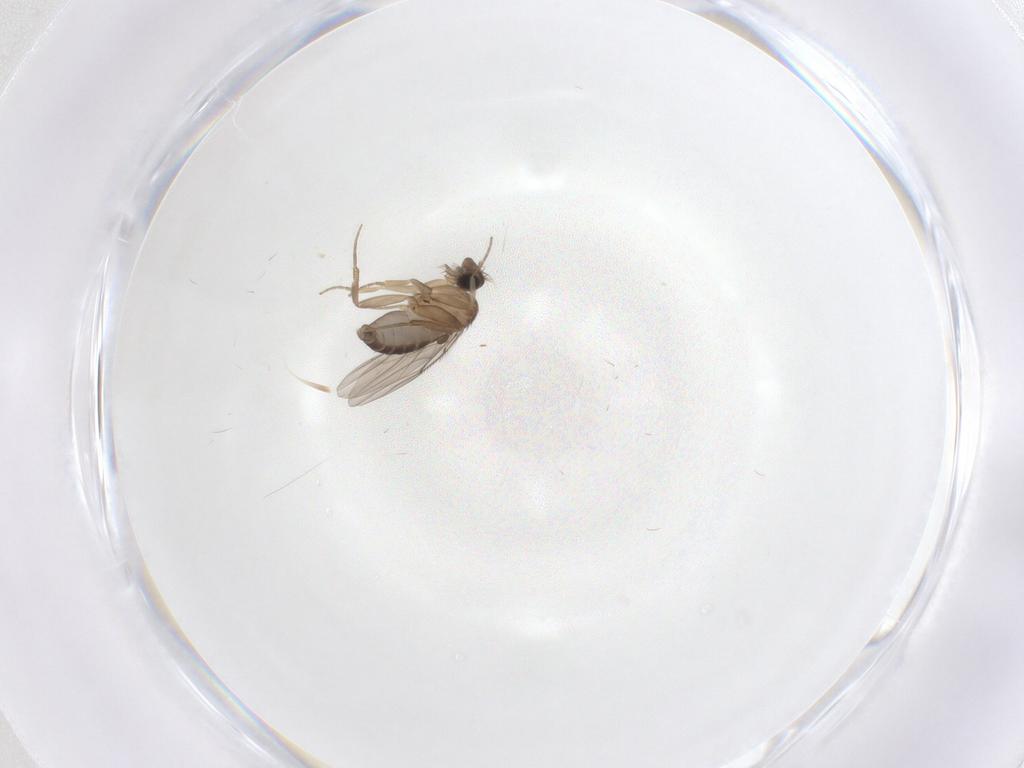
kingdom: Animalia
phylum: Arthropoda
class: Insecta
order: Diptera
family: Phoridae
